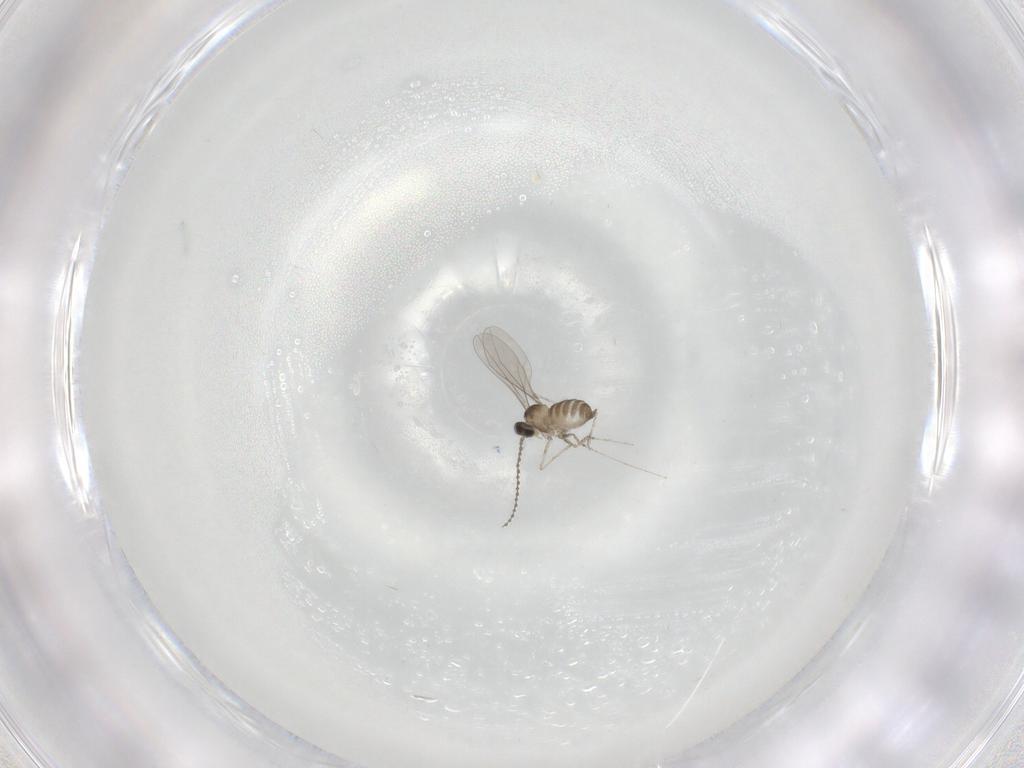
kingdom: Animalia
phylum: Arthropoda
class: Insecta
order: Diptera
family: Cecidomyiidae
